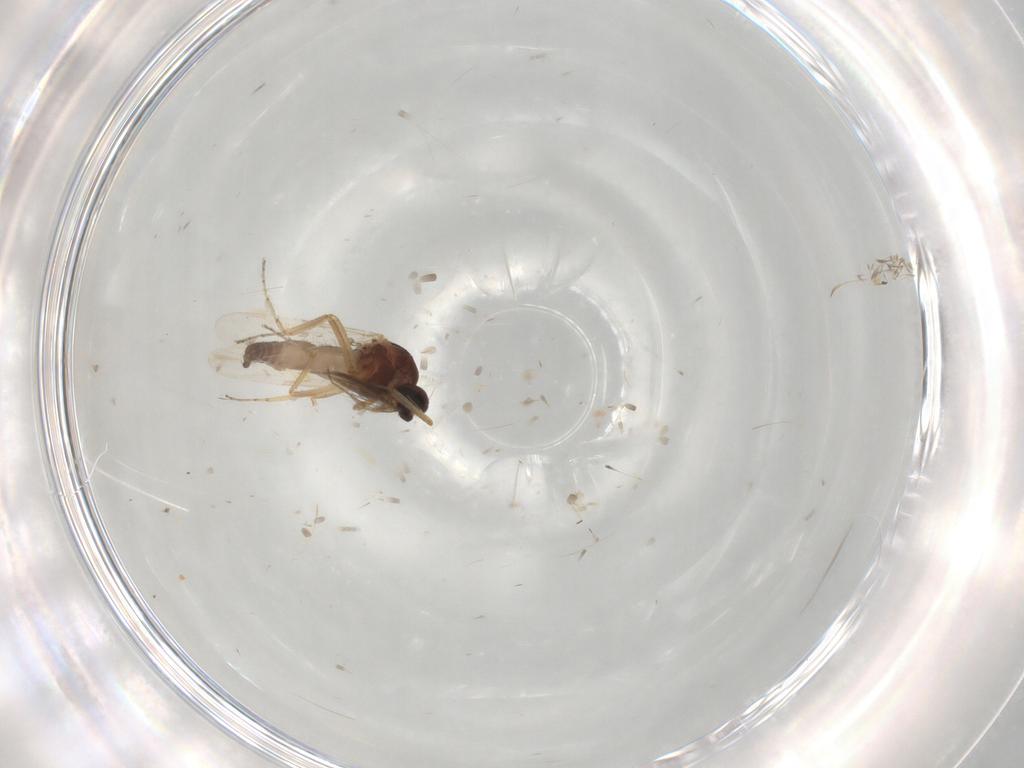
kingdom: Animalia
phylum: Arthropoda
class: Insecta
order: Diptera
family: Ceratopogonidae
